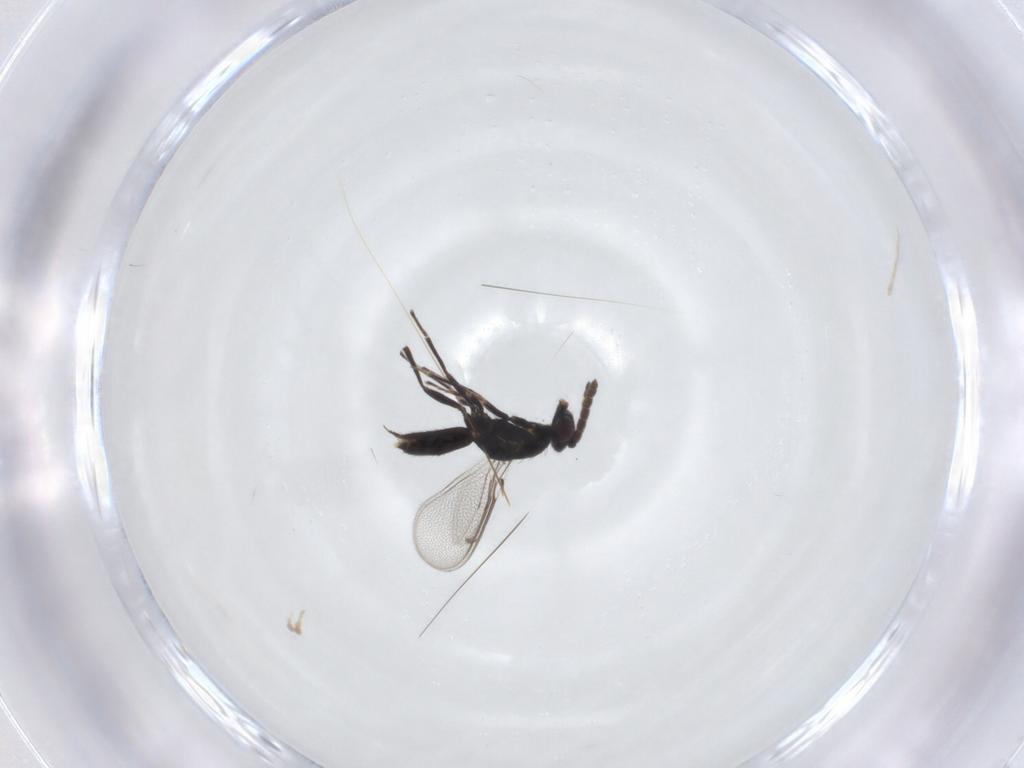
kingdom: Animalia
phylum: Arthropoda
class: Insecta
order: Hymenoptera
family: Eulophidae
